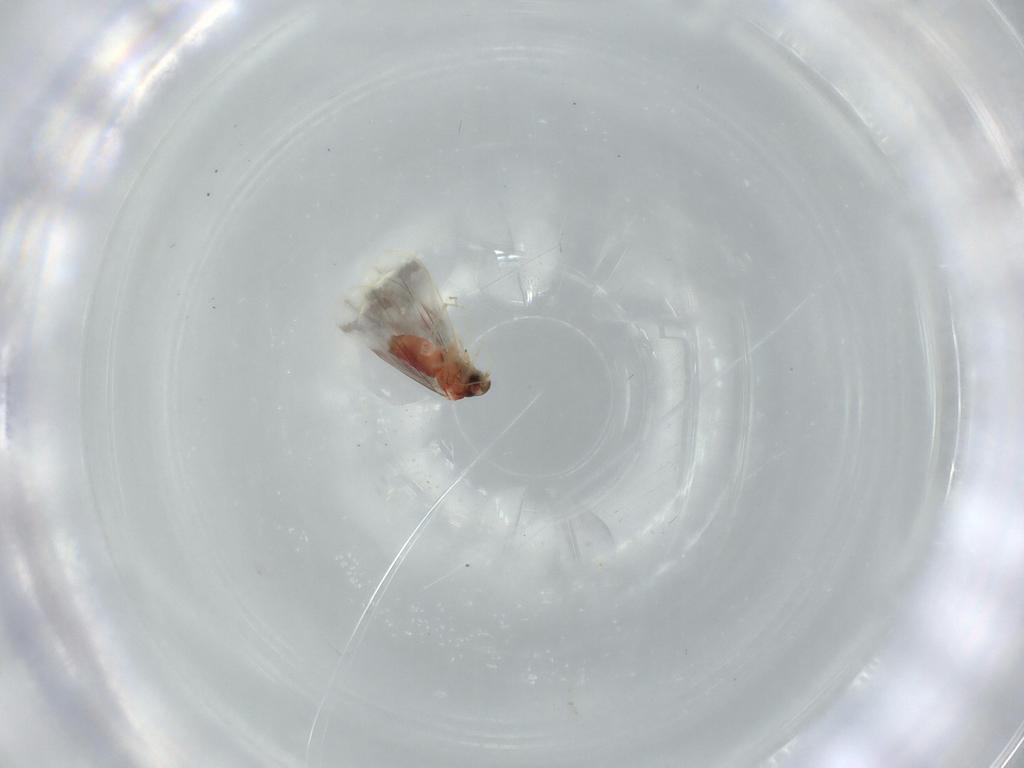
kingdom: Animalia
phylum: Arthropoda
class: Insecta
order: Hemiptera
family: Aleyrodidae
